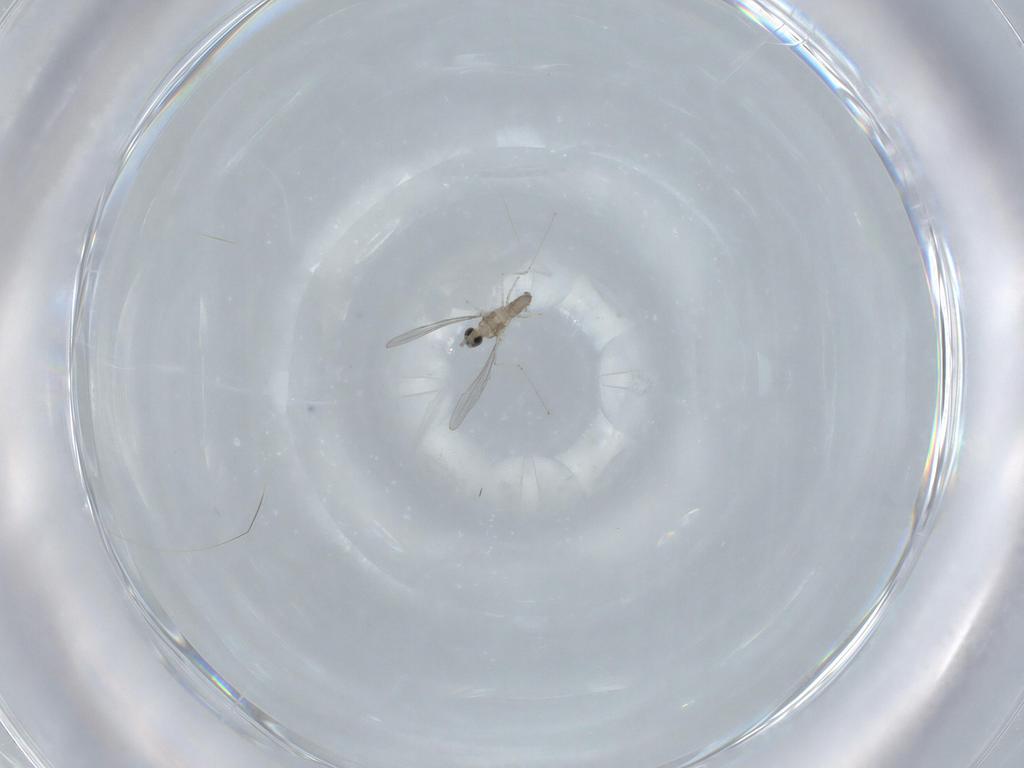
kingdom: Animalia
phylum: Arthropoda
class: Insecta
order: Diptera
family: Cecidomyiidae
